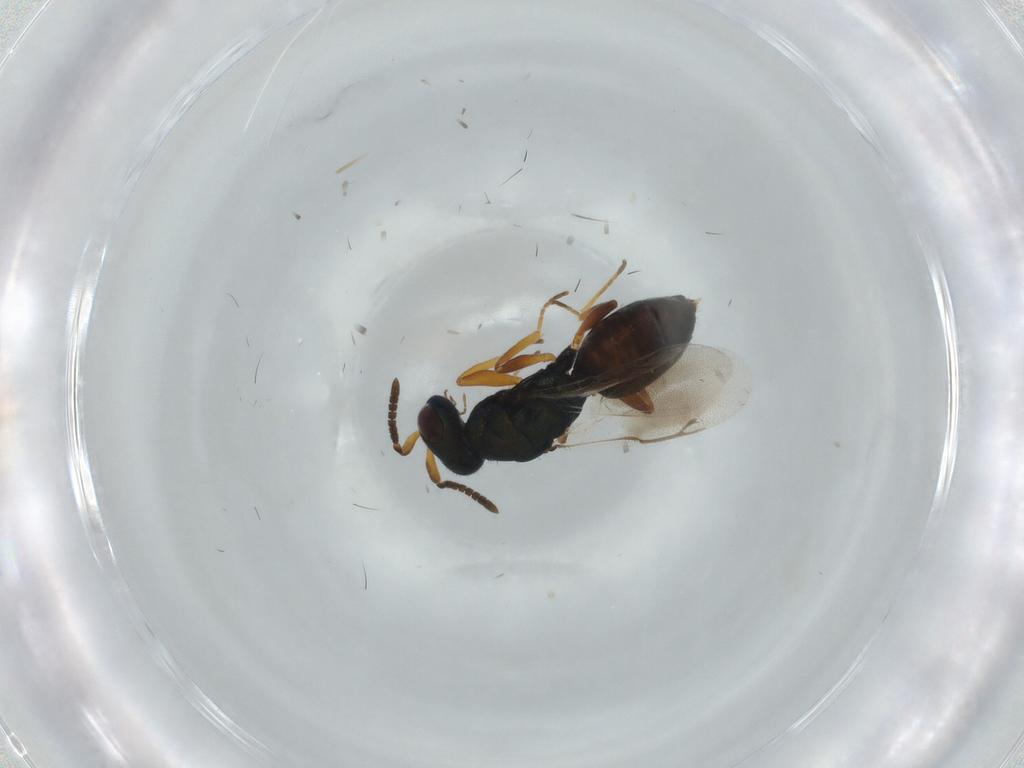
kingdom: Animalia
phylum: Arthropoda
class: Insecta
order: Hymenoptera
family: Pteromalidae
